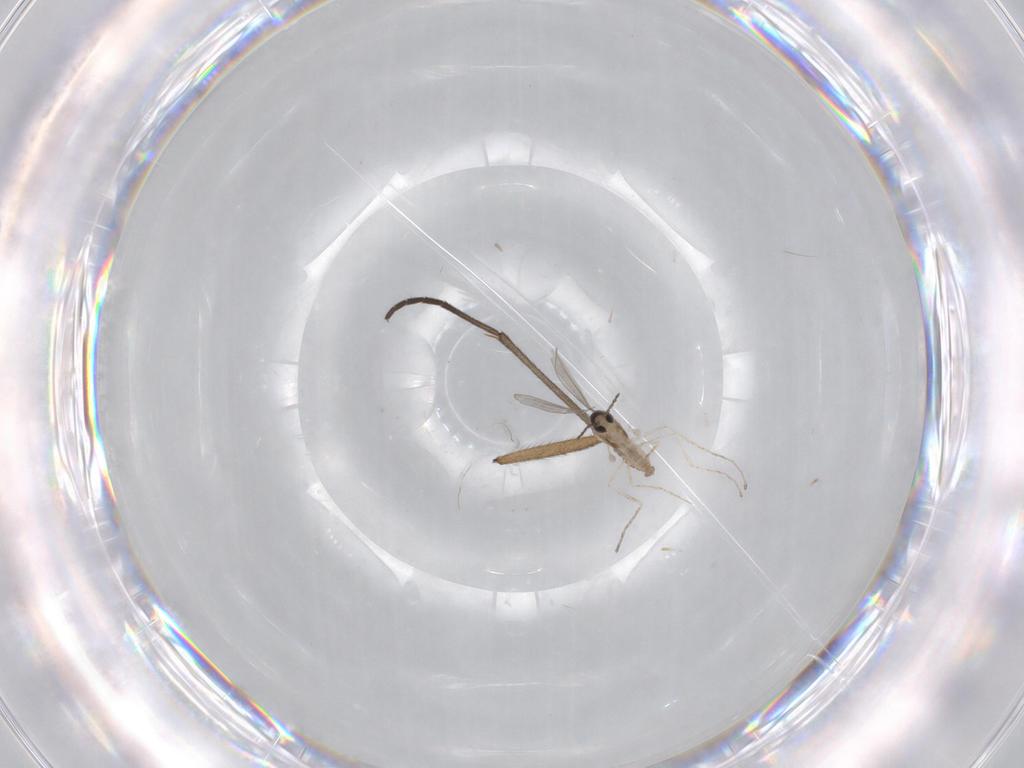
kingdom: Animalia
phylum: Arthropoda
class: Insecta
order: Diptera
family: Cecidomyiidae
